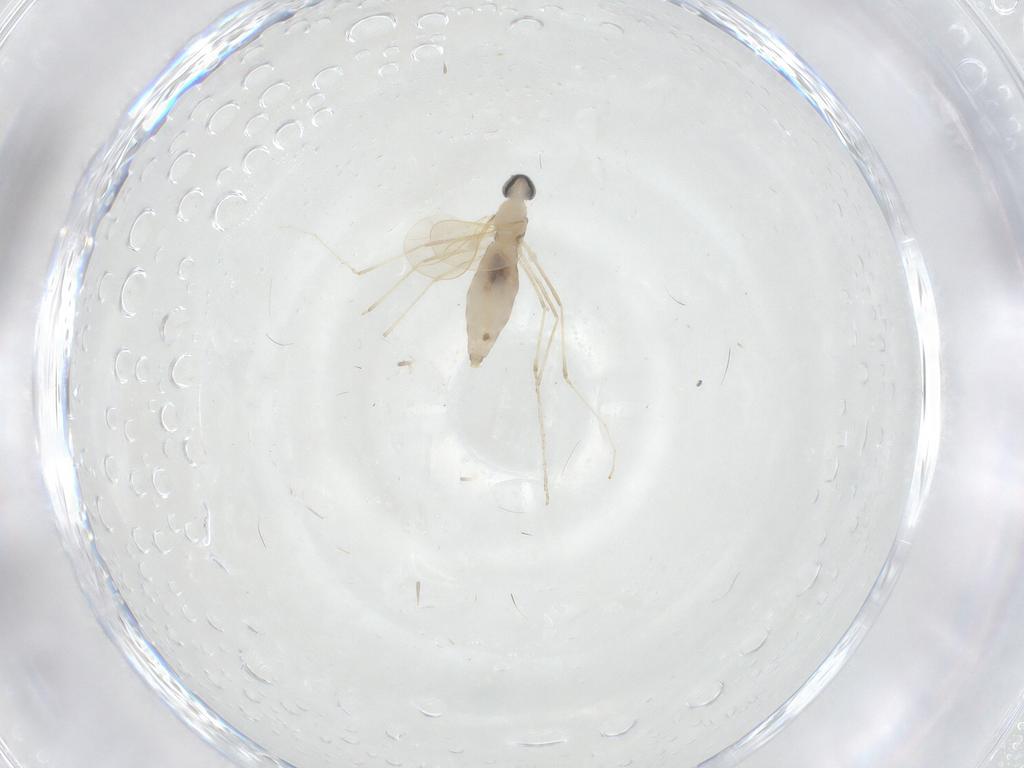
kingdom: Animalia
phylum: Arthropoda
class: Insecta
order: Diptera
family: Cecidomyiidae
